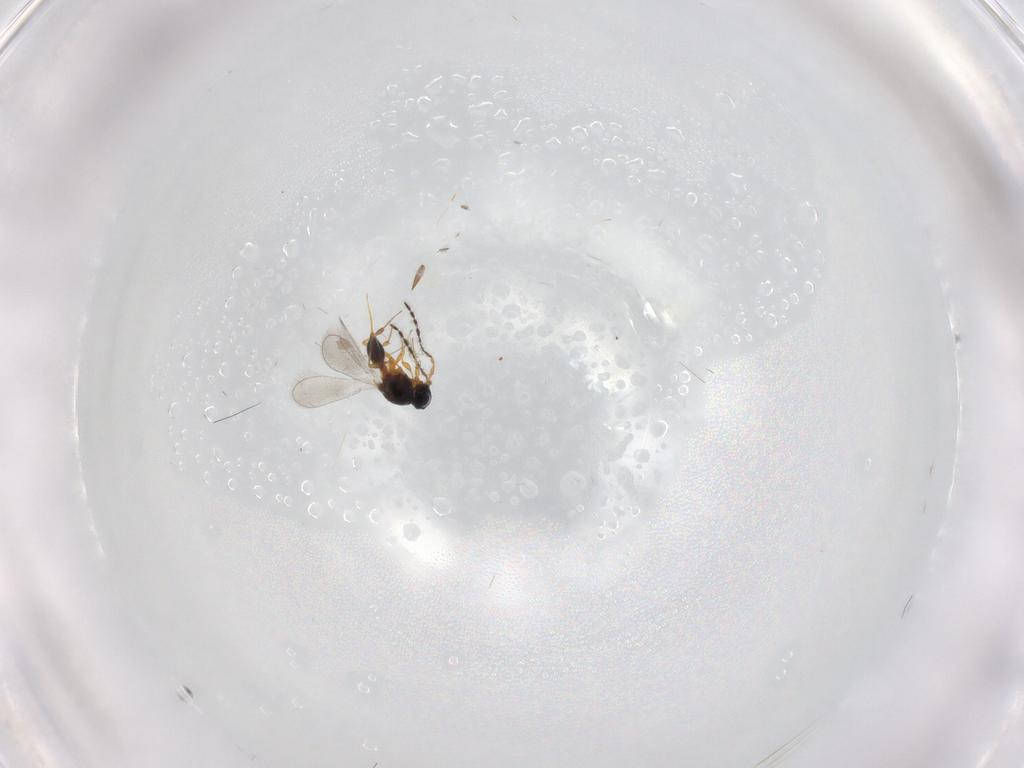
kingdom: Animalia
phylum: Arthropoda
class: Insecta
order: Hymenoptera
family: Platygastridae
